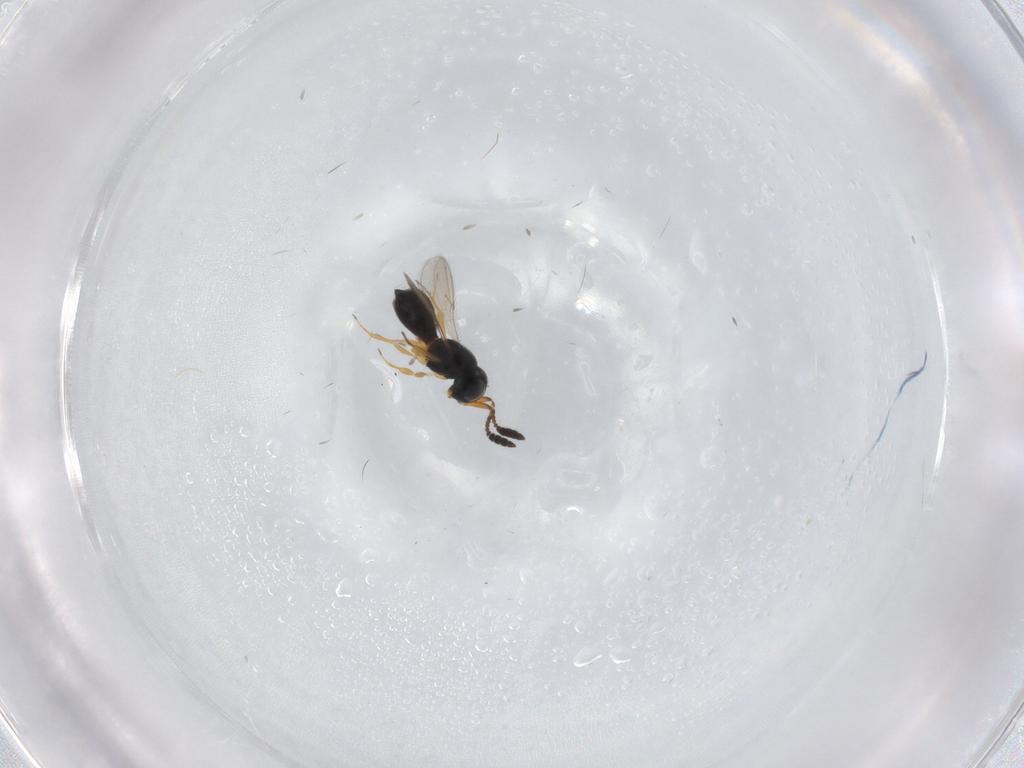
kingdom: Animalia
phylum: Arthropoda
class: Insecta
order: Hymenoptera
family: Scelionidae
